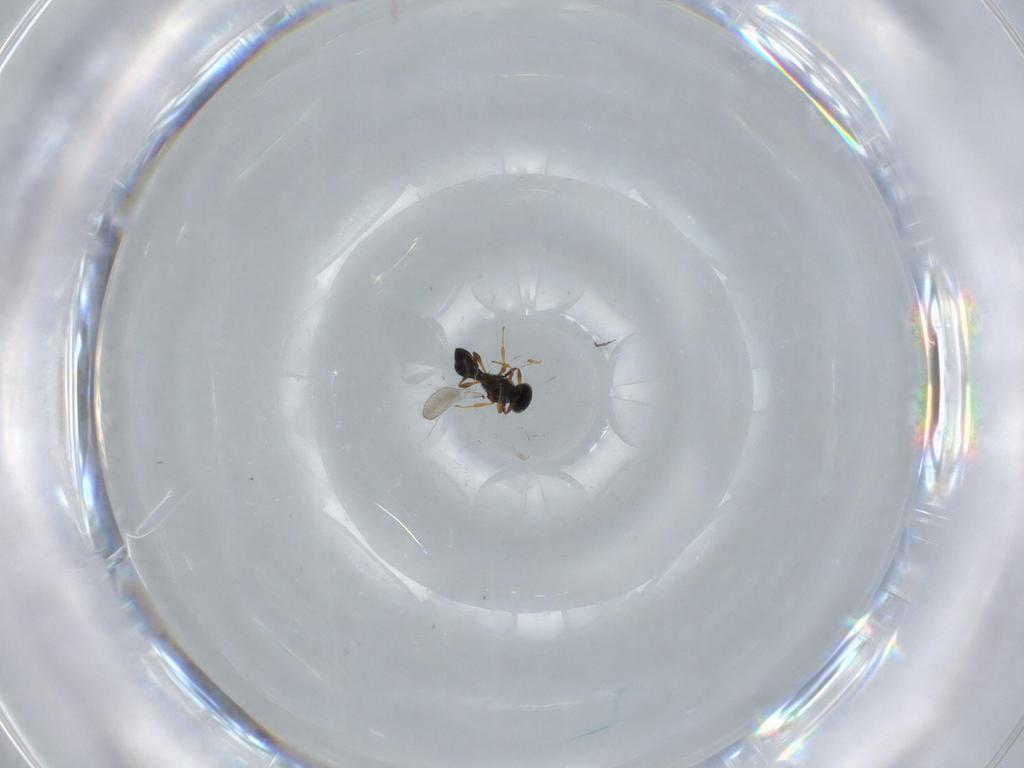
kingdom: Animalia
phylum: Arthropoda
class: Insecta
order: Hymenoptera
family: Platygastridae
